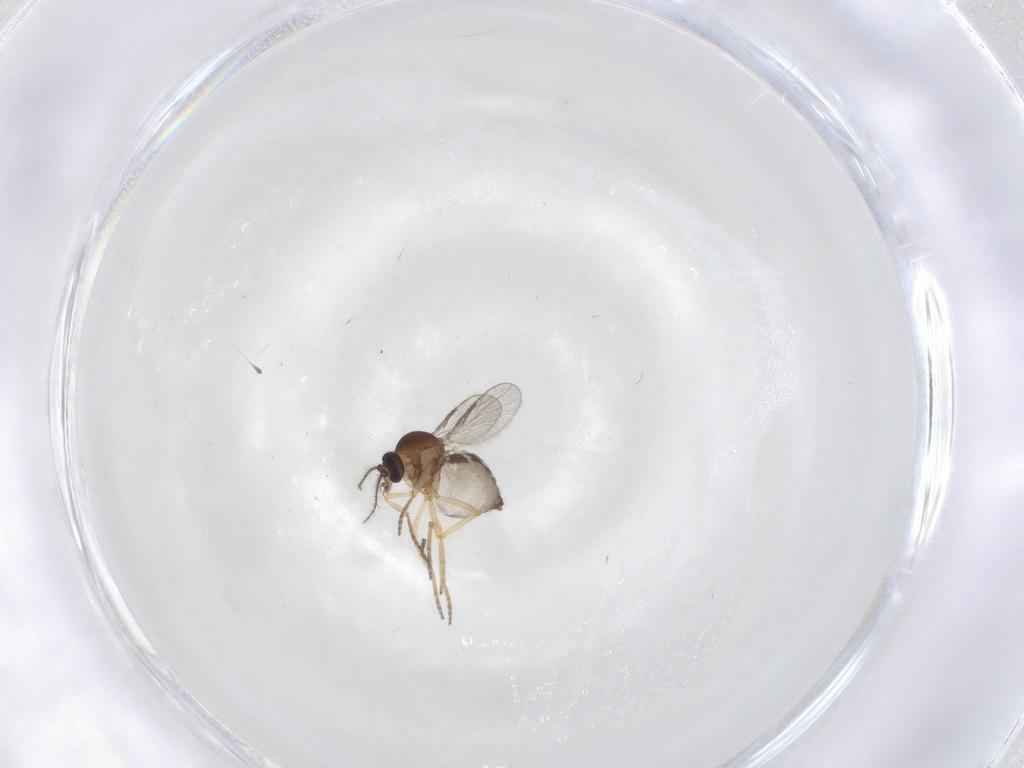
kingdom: Animalia
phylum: Arthropoda
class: Insecta
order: Diptera
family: Ceratopogonidae
